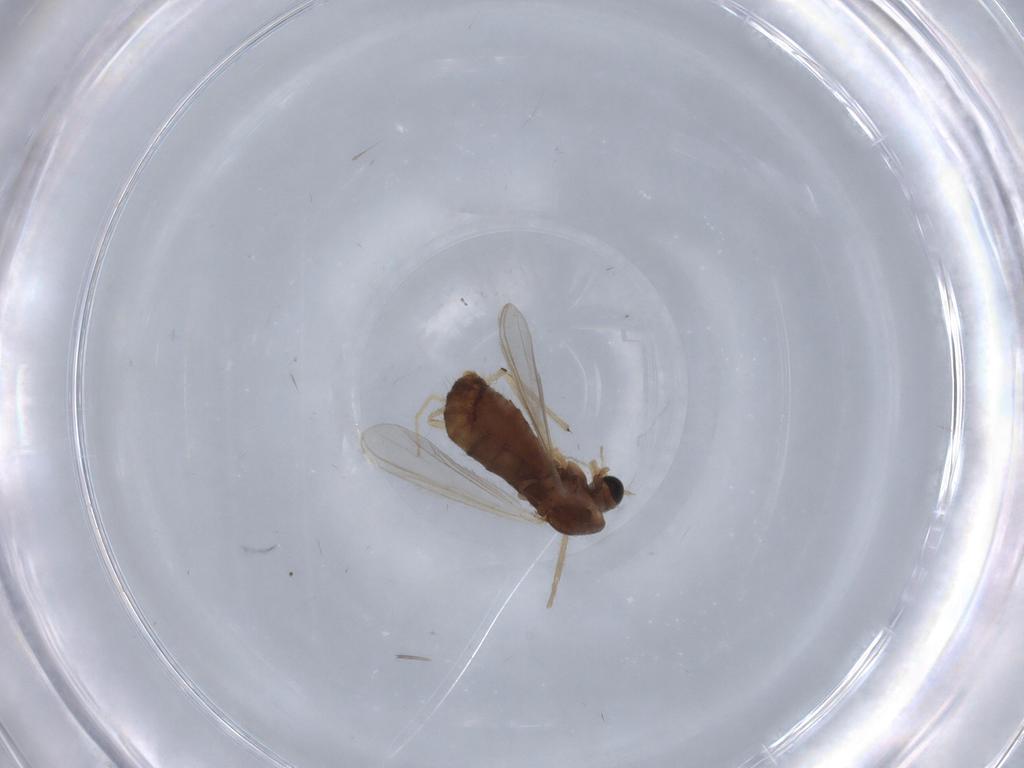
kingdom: Animalia
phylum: Arthropoda
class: Insecta
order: Diptera
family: Chironomidae
